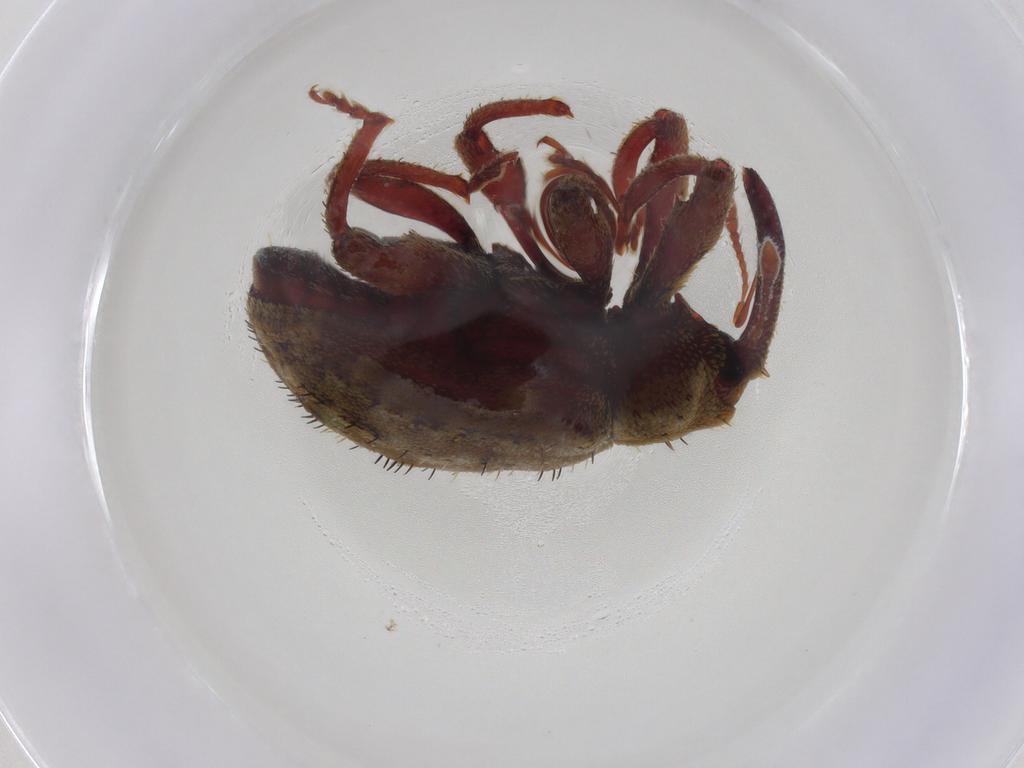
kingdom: Animalia
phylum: Arthropoda
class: Insecta
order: Coleoptera
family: Curculionidae
